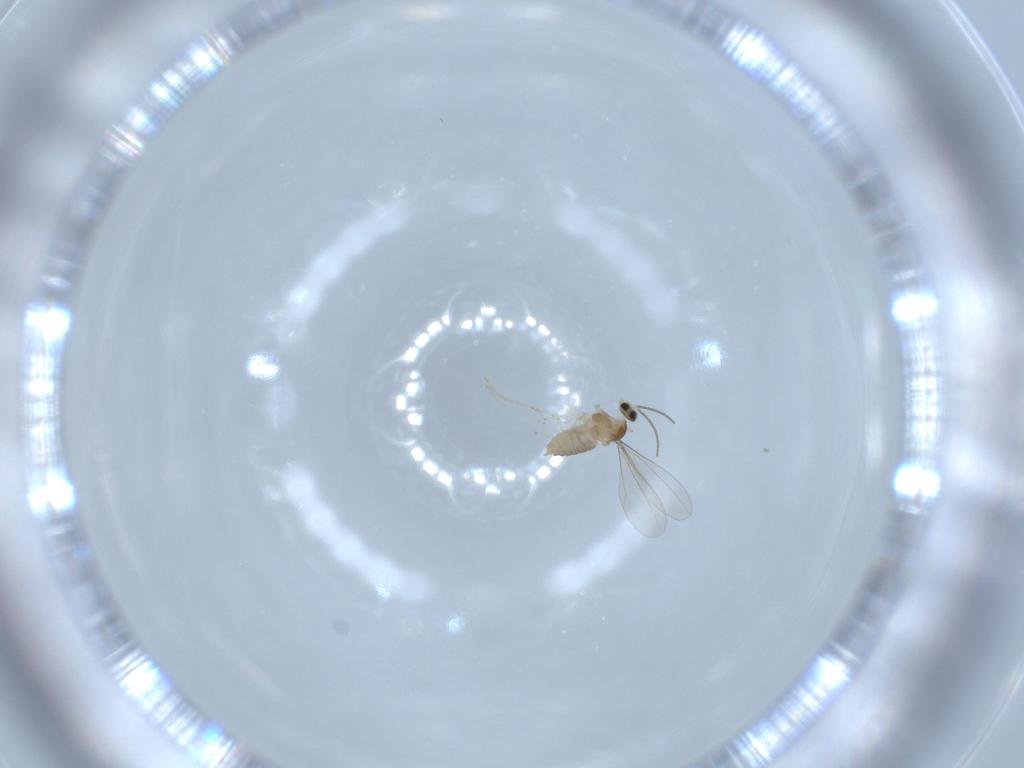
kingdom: Animalia
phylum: Arthropoda
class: Insecta
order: Diptera
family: Cecidomyiidae
